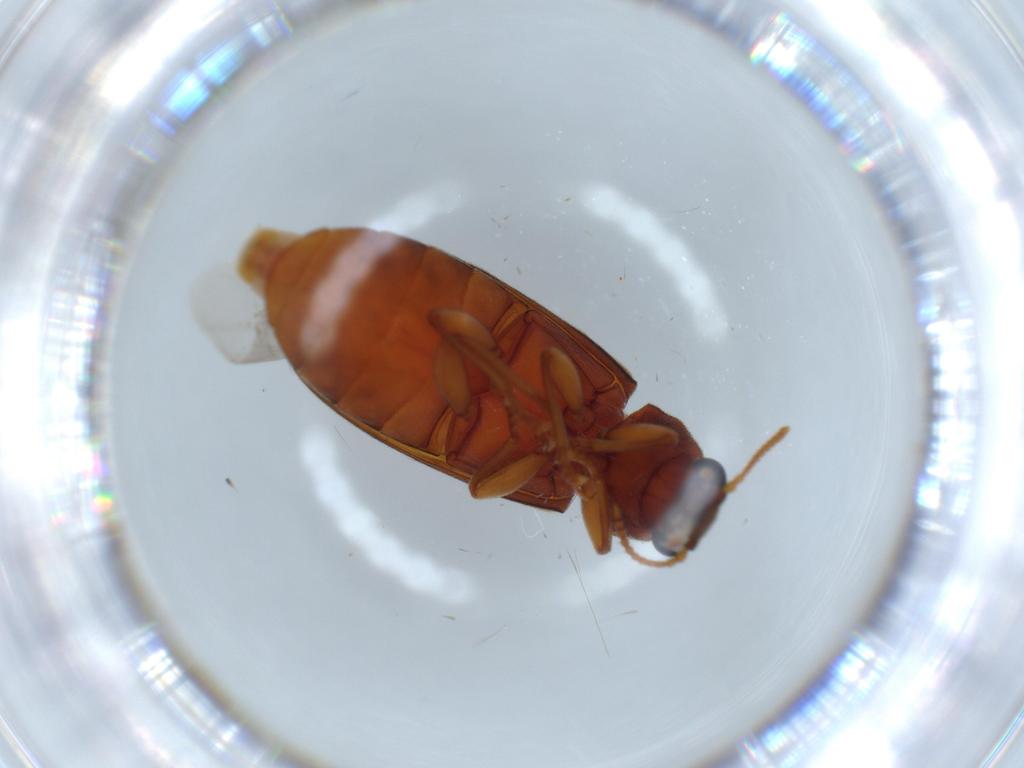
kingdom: Animalia
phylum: Arthropoda
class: Insecta
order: Coleoptera
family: Mycteridae
